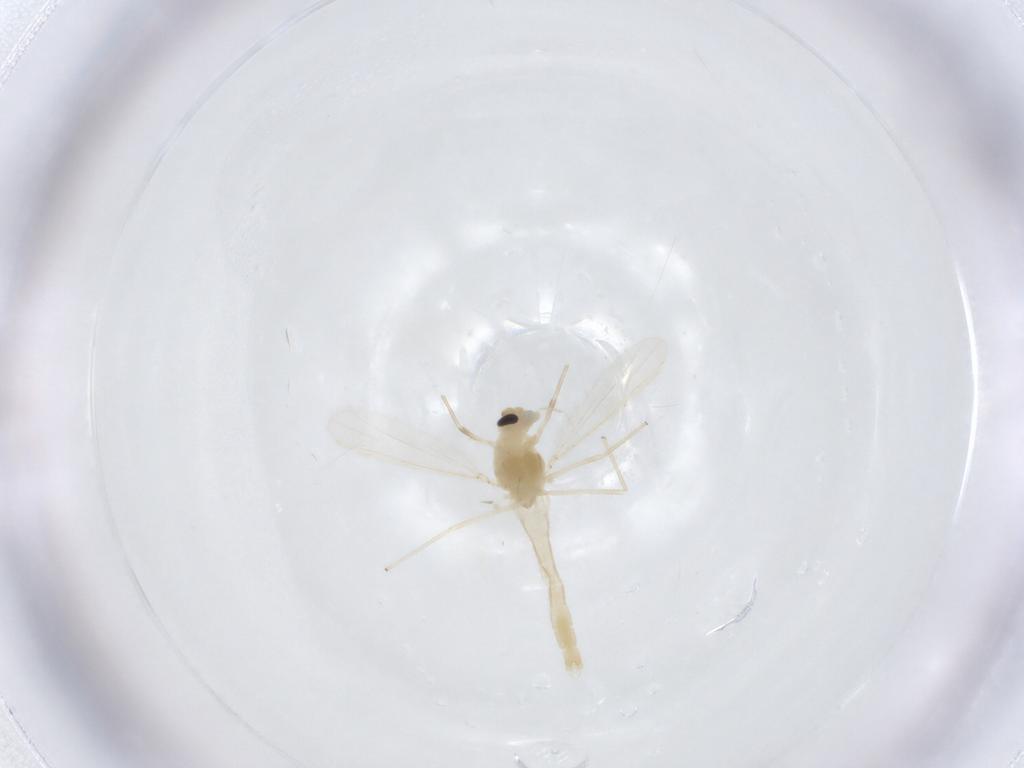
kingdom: Animalia
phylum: Arthropoda
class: Insecta
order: Diptera
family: Chironomidae
